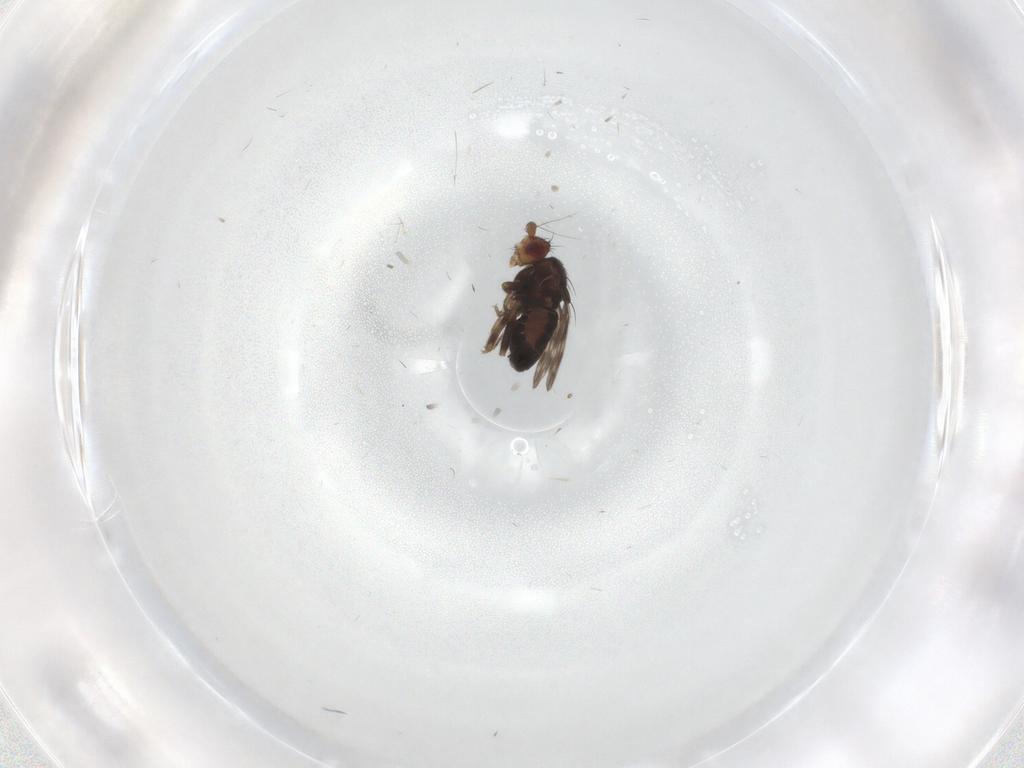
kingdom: Animalia
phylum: Arthropoda
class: Insecta
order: Diptera
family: Sphaeroceridae
